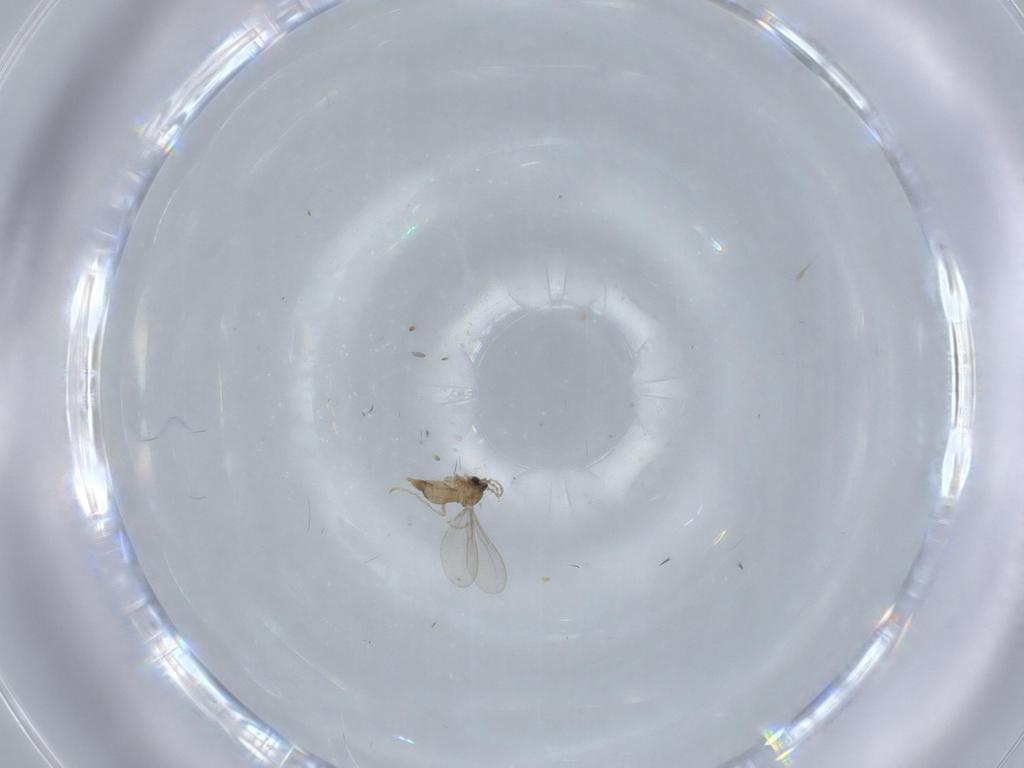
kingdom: Animalia
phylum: Arthropoda
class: Insecta
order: Diptera
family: Cecidomyiidae
